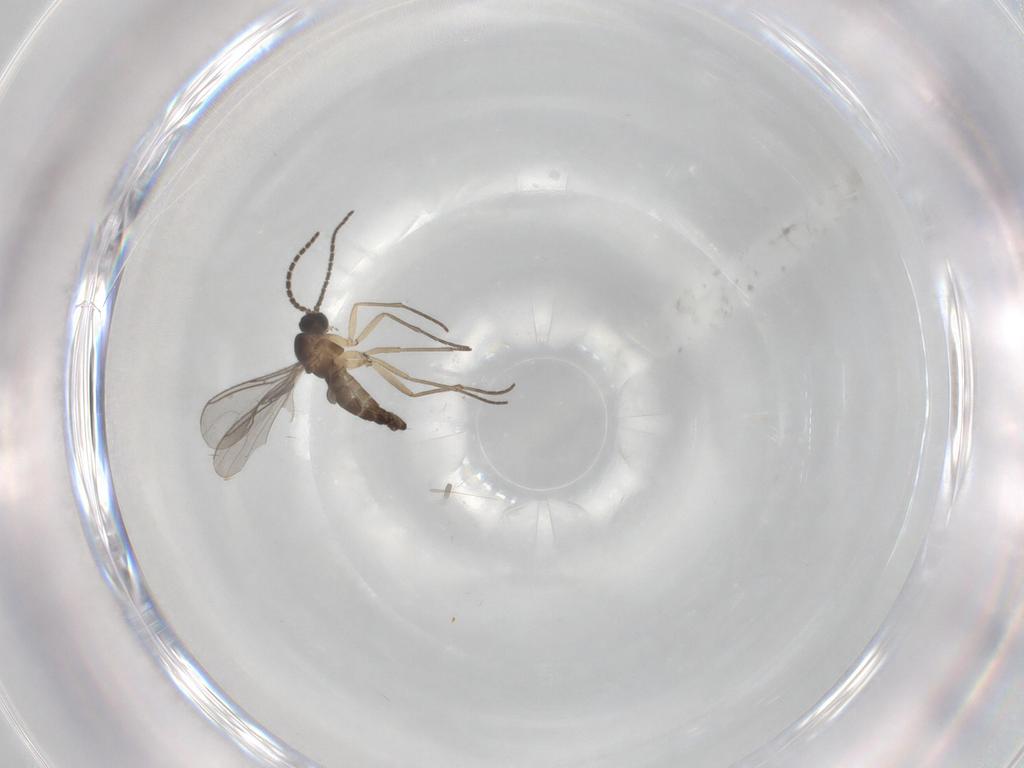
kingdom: Animalia
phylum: Arthropoda
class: Insecta
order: Diptera
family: Sciaridae
